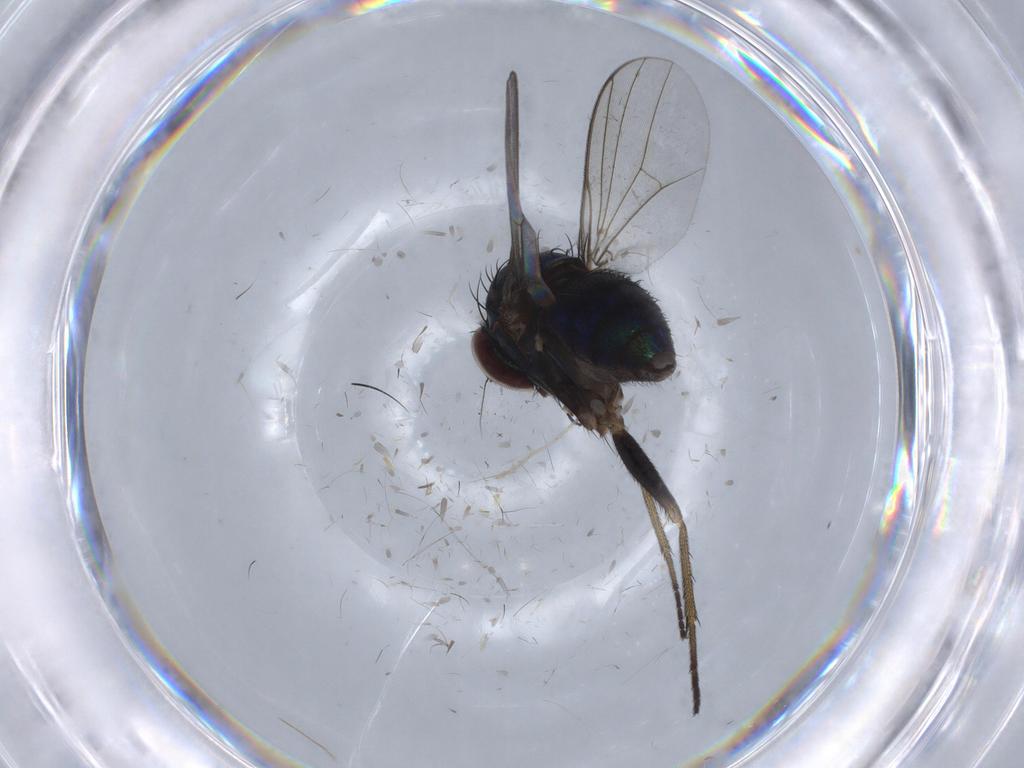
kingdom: Animalia
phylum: Arthropoda
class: Insecta
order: Diptera
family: Dolichopodidae
